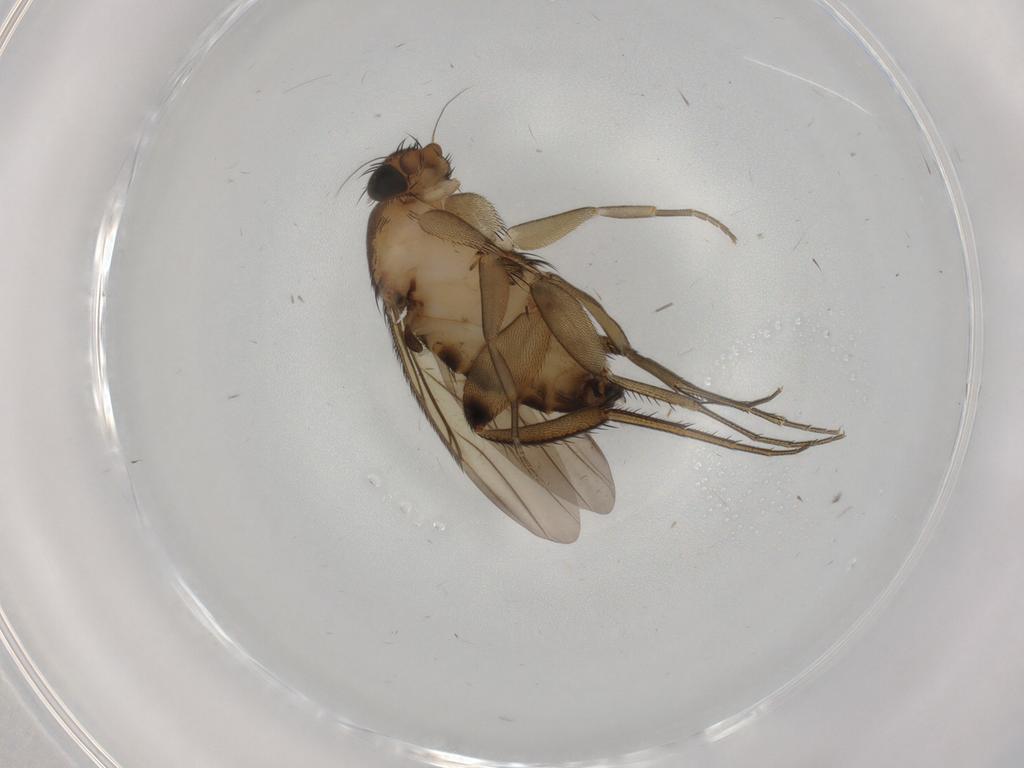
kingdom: Animalia
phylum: Arthropoda
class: Insecta
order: Diptera
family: Phoridae
